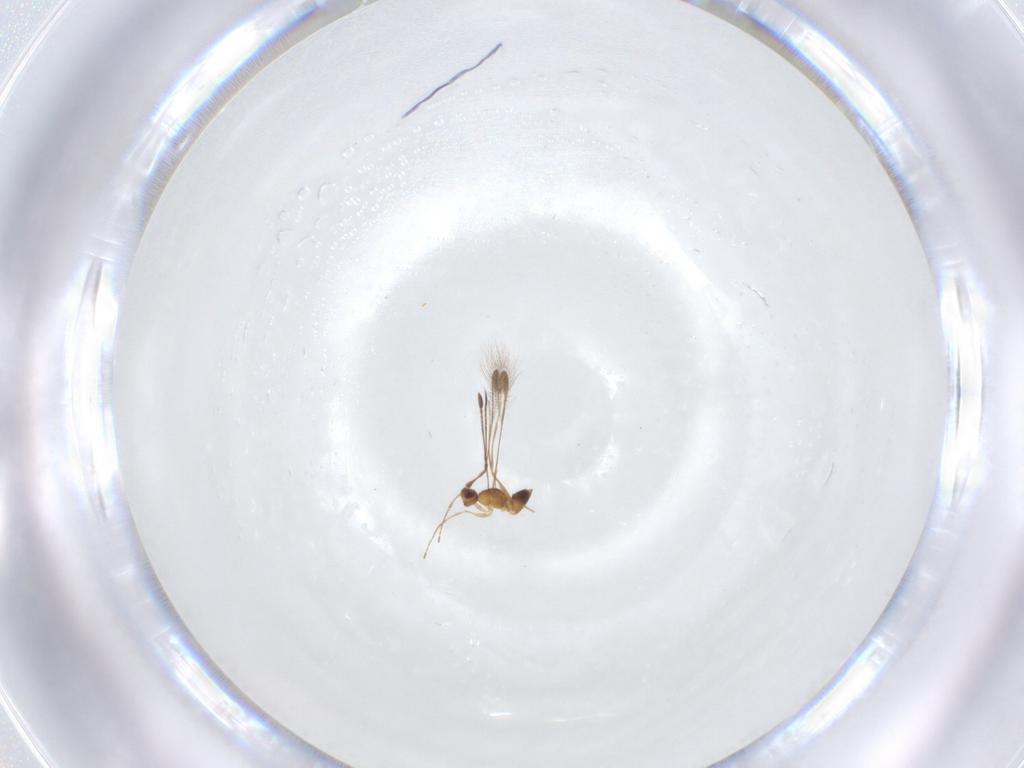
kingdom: Animalia
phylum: Arthropoda
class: Insecta
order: Hymenoptera
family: Mymaridae
